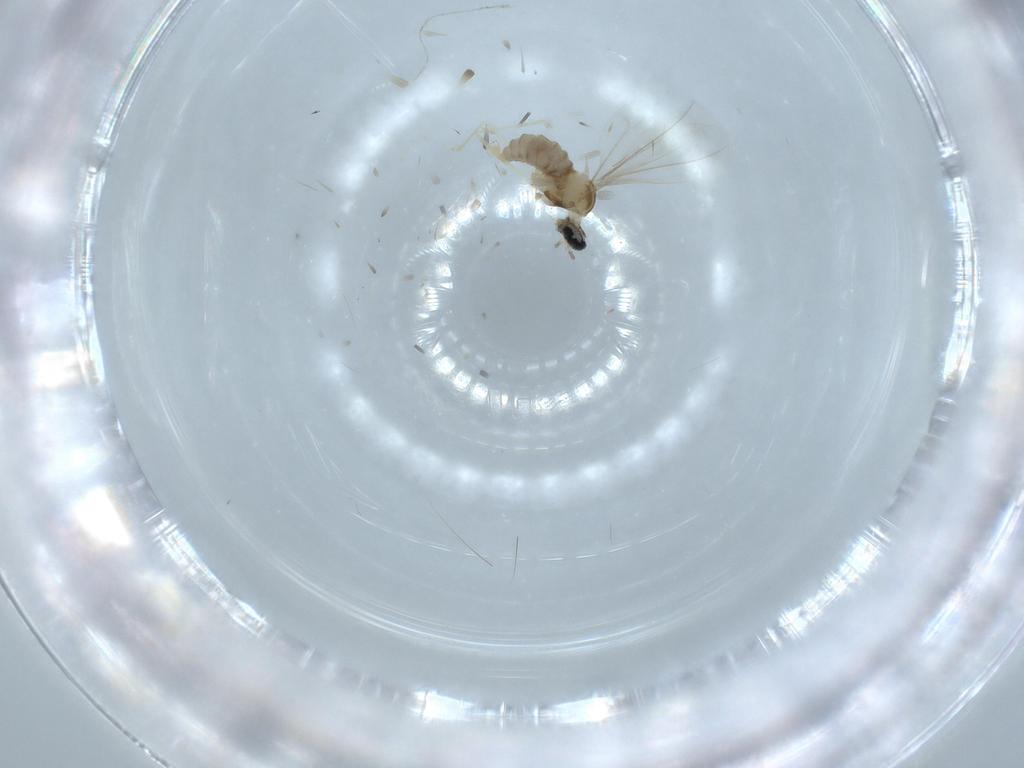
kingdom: Animalia
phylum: Arthropoda
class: Insecta
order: Diptera
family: Cecidomyiidae
